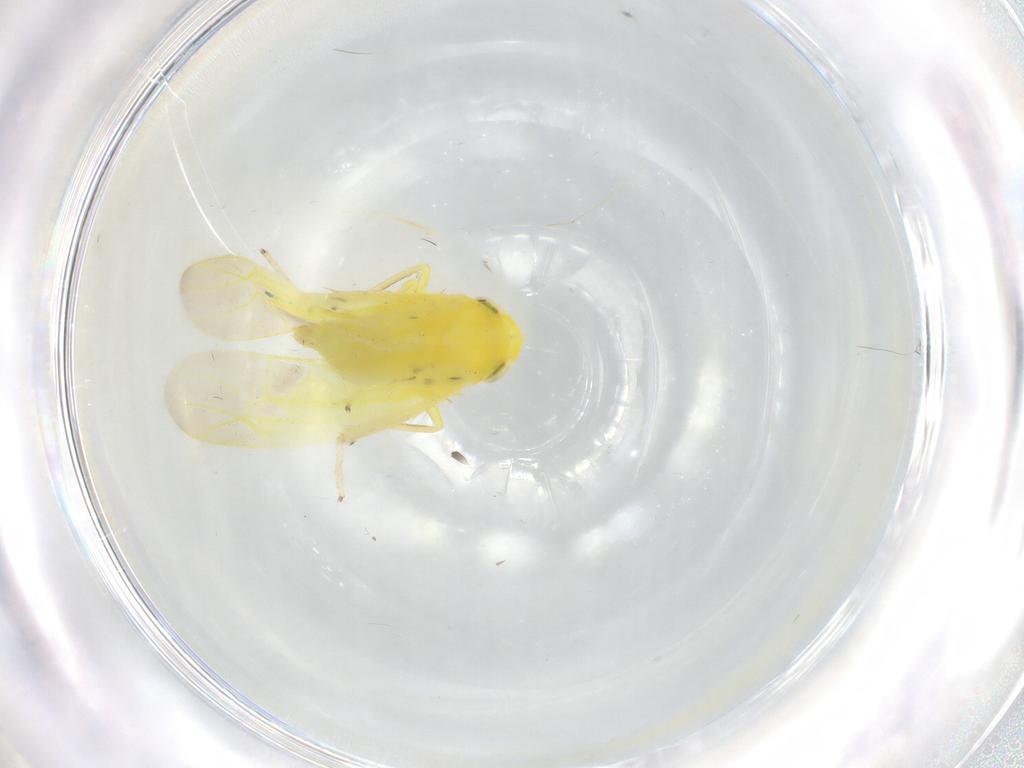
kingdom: Animalia
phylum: Arthropoda
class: Insecta
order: Hemiptera
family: Cicadellidae
